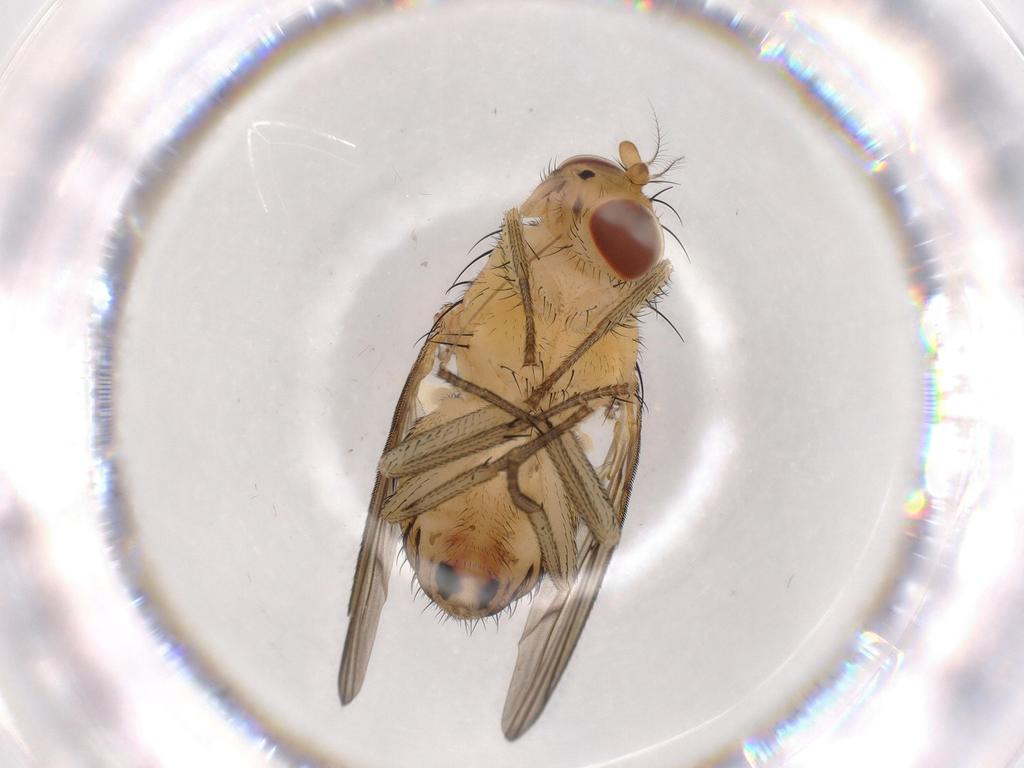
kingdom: Animalia
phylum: Arthropoda
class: Insecta
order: Diptera
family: Lauxaniidae
